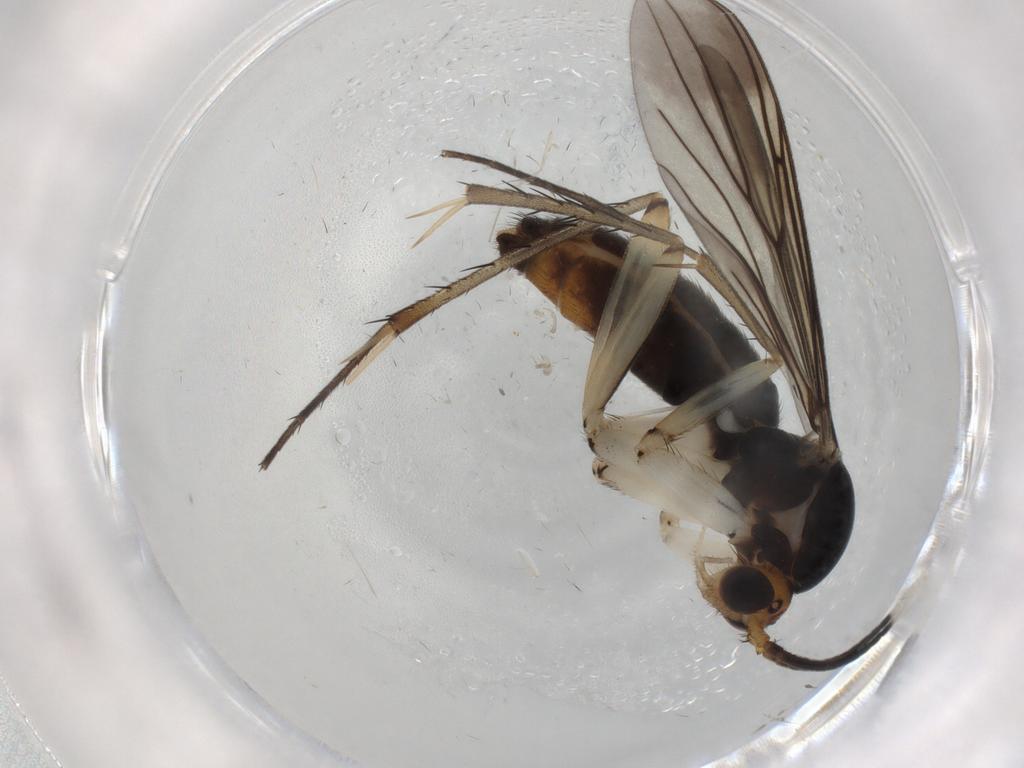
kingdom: Animalia
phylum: Arthropoda
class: Insecta
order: Diptera
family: Mycetophilidae
